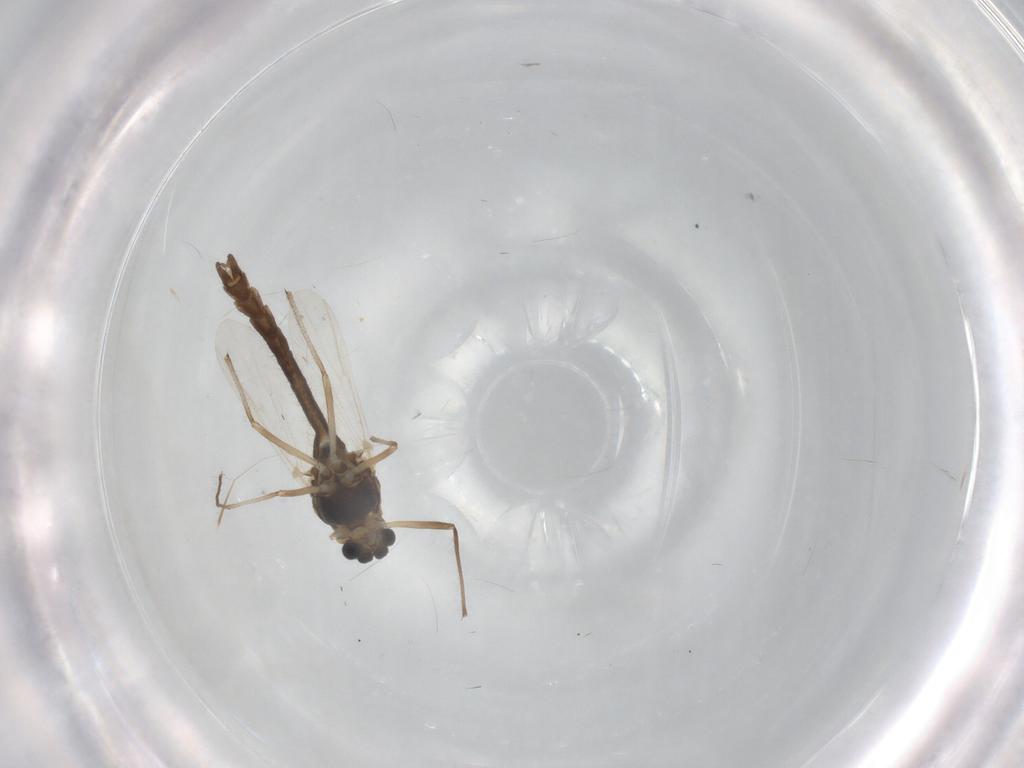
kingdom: Animalia
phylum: Arthropoda
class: Insecta
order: Diptera
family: Chironomidae
